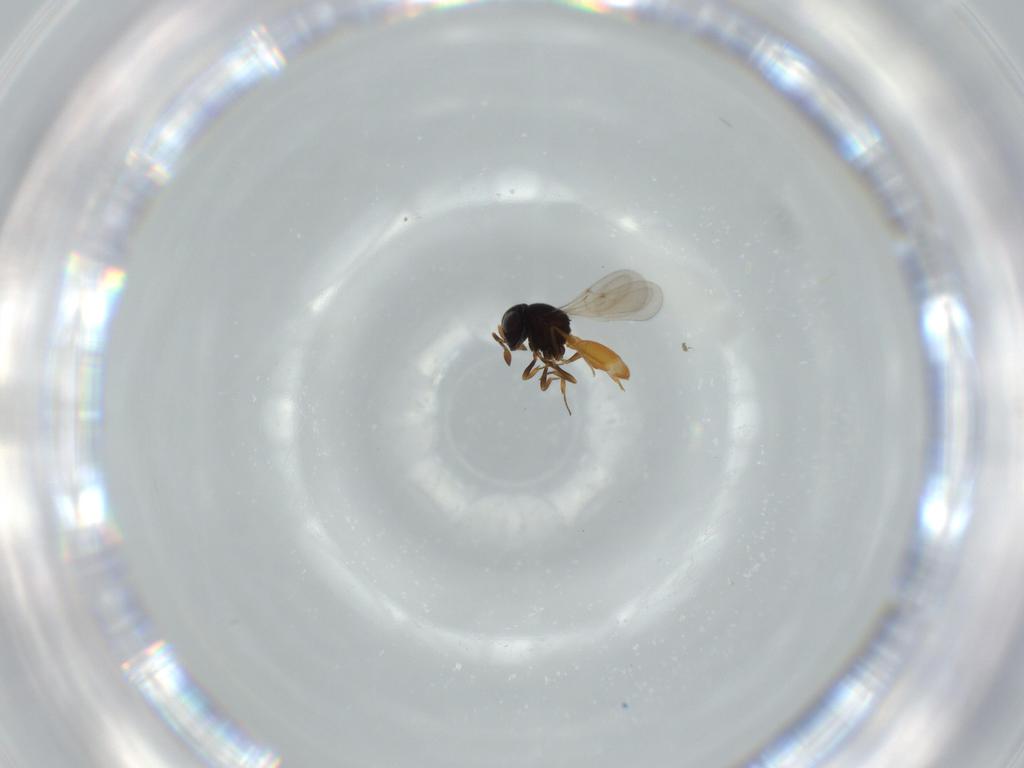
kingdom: Animalia
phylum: Arthropoda
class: Insecta
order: Hymenoptera
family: Scelionidae
